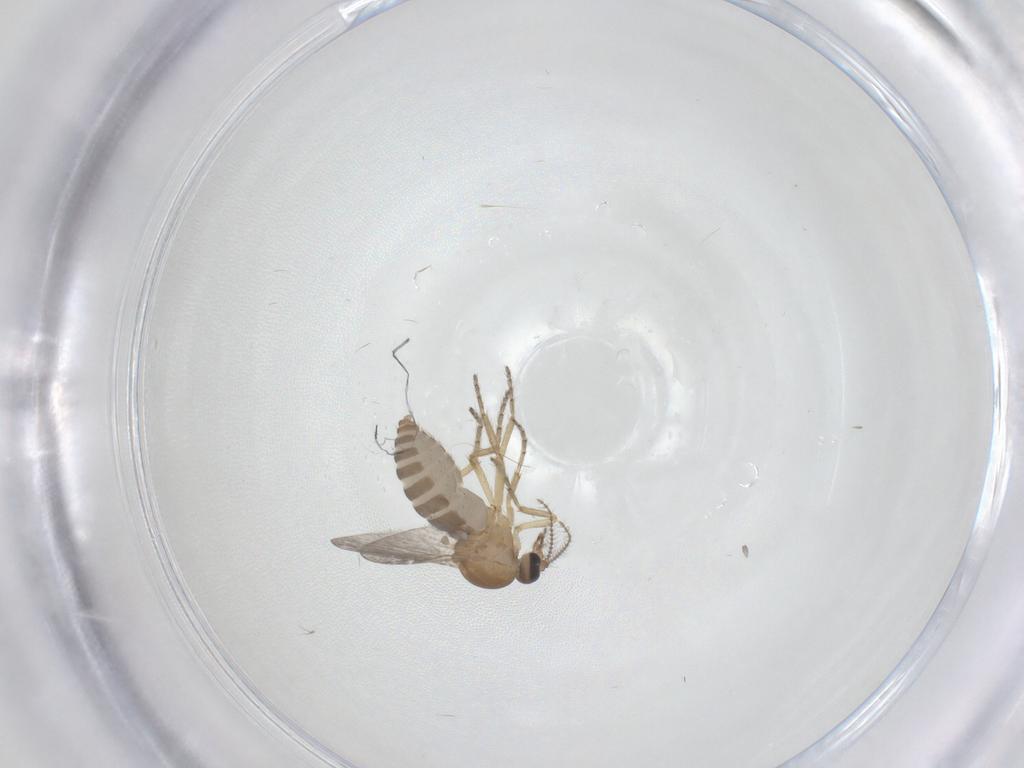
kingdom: Animalia
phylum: Arthropoda
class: Insecta
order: Diptera
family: Ceratopogonidae
